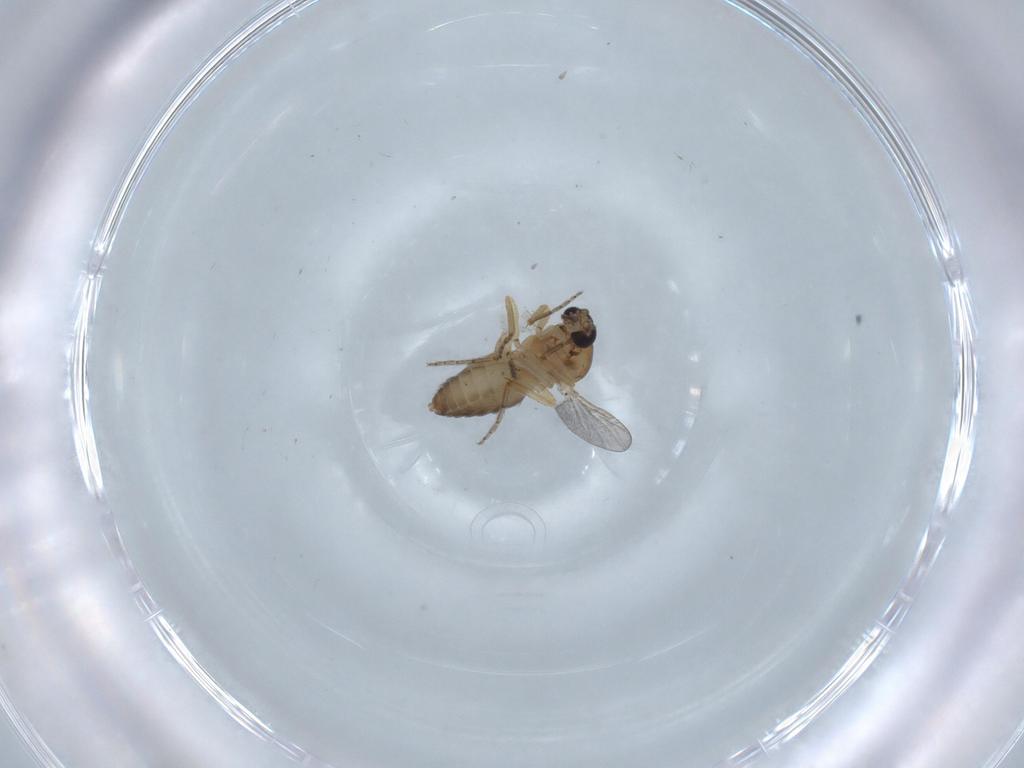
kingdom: Animalia
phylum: Arthropoda
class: Insecta
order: Diptera
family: Ceratopogonidae
